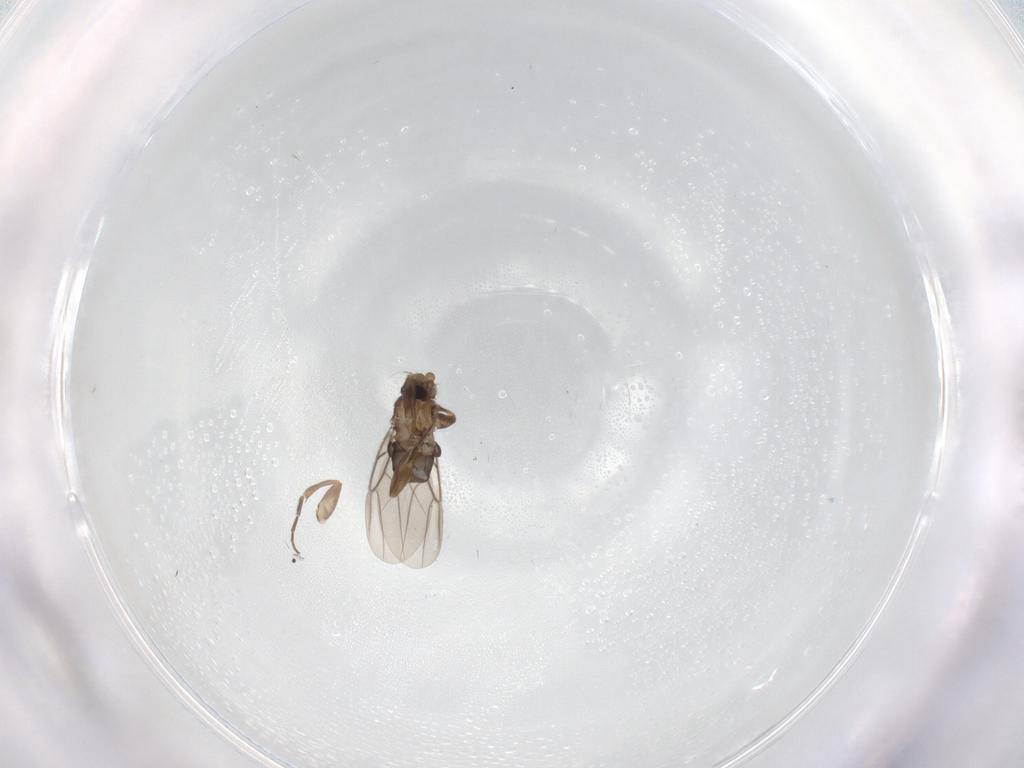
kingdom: Animalia
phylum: Arthropoda
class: Insecta
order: Diptera
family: Phoridae
